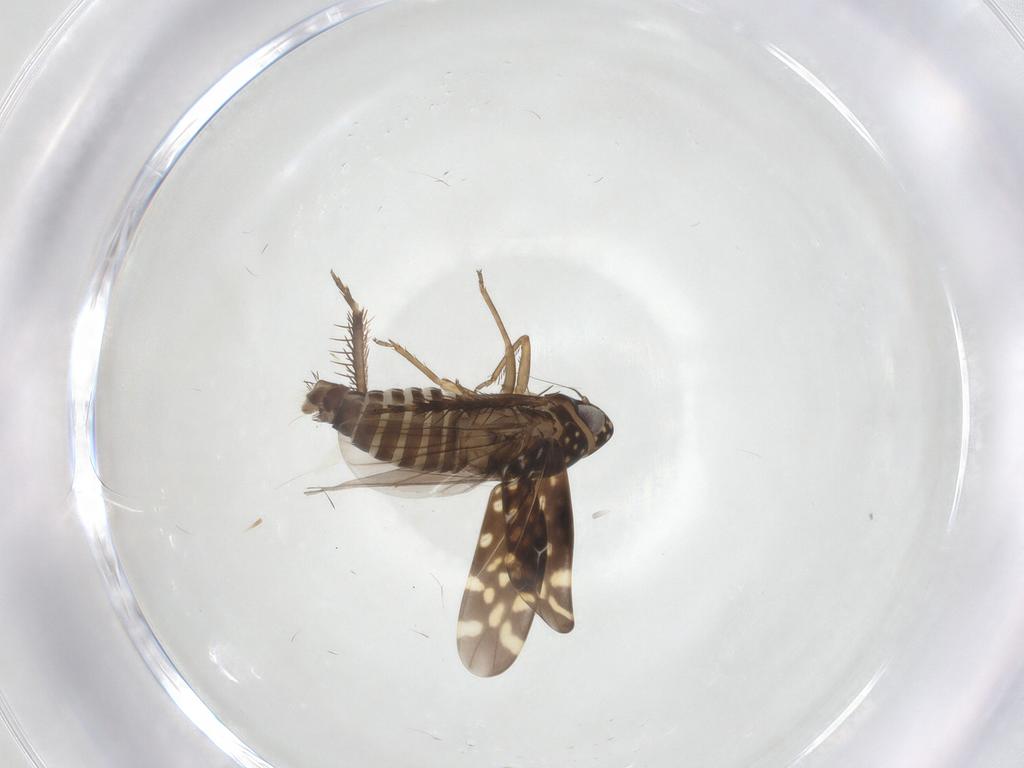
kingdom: Animalia
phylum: Arthropoda
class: Insecta
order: Hemiptera
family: Cicadellidae
